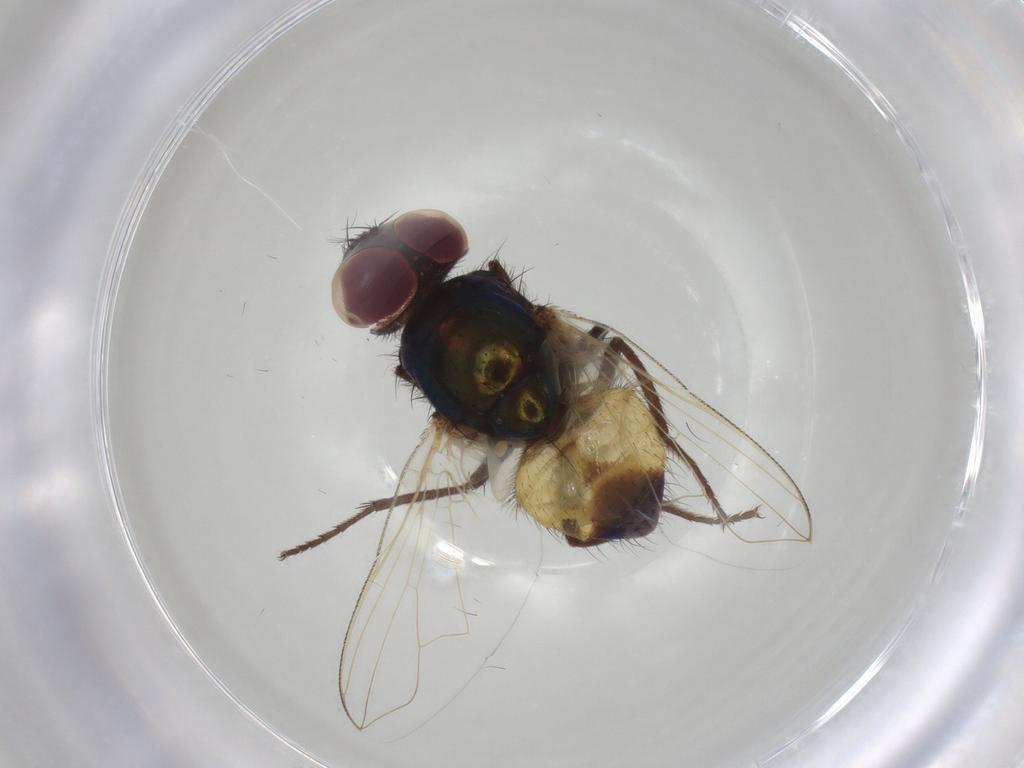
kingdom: Animalia
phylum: Arthropoda
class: Insecta
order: Diptera
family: Muscidae
